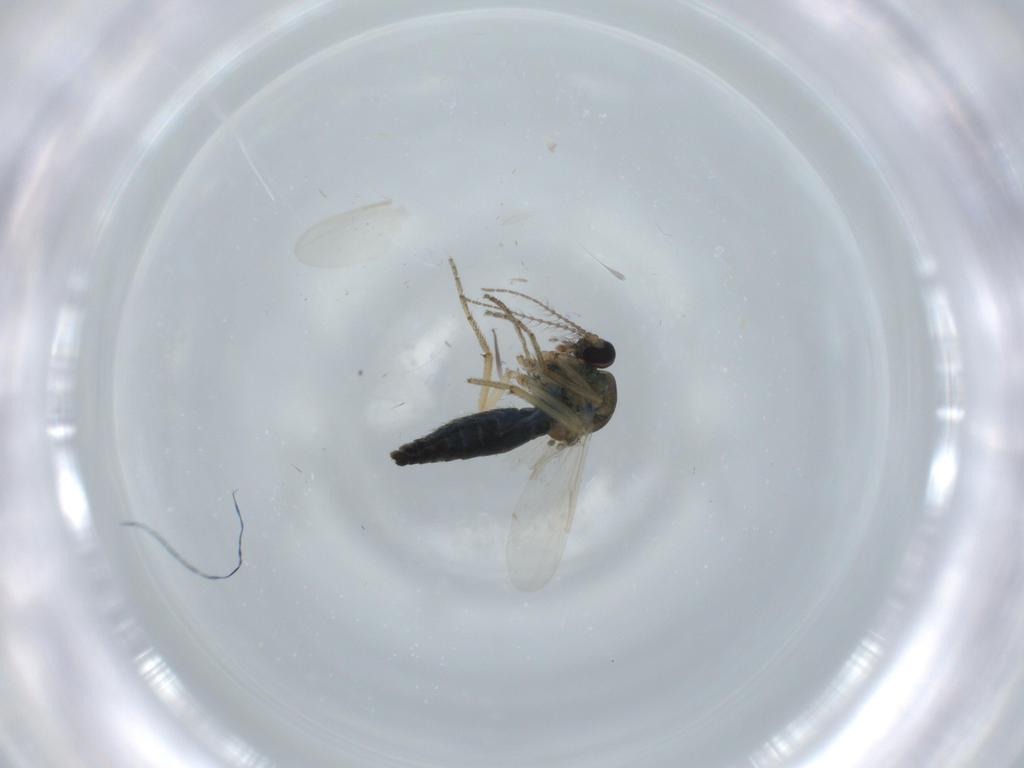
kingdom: Animalia
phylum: Arthropoda
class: Insecta
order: Diptera
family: Ceratopogonidae
